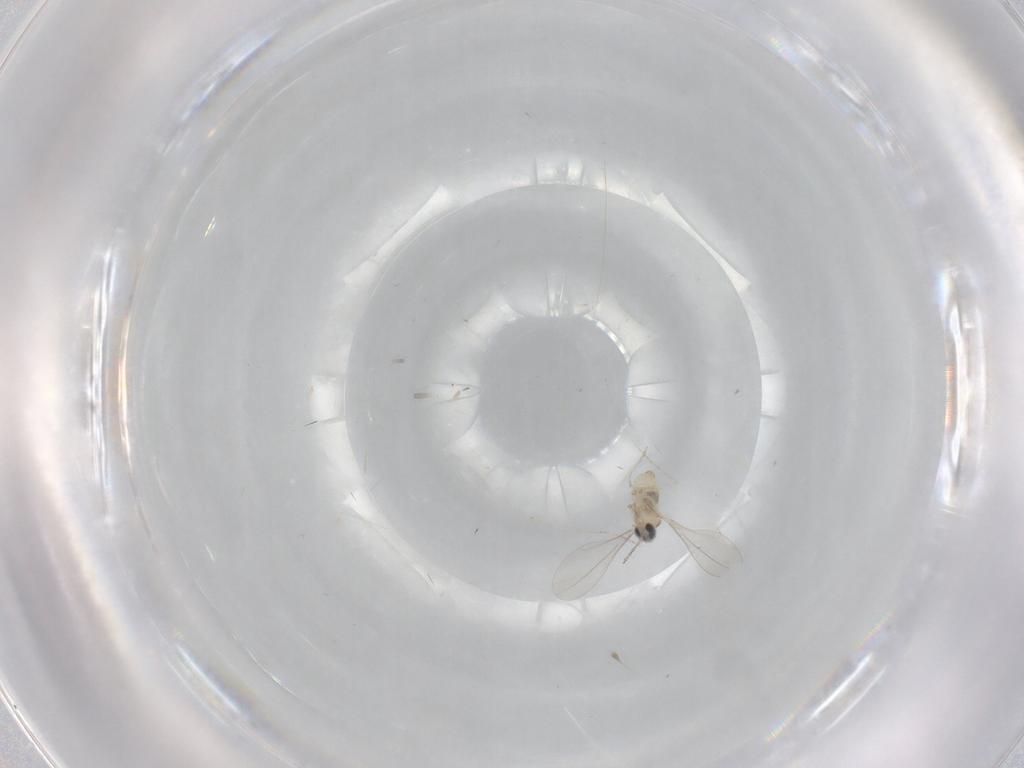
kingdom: Animalia
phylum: Arthropoda
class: Insecta
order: Diptera
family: Cecidomyiidae
